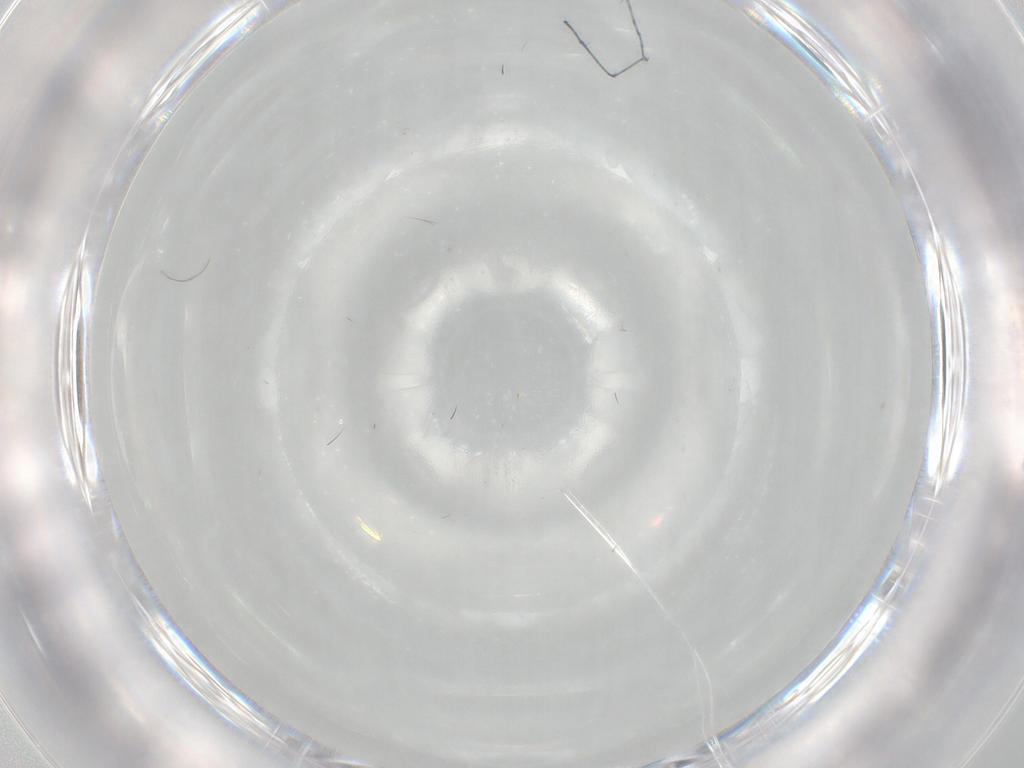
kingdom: Animalia
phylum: Arthropoda
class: Insecta
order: Diptera
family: Cecidomyiidae
